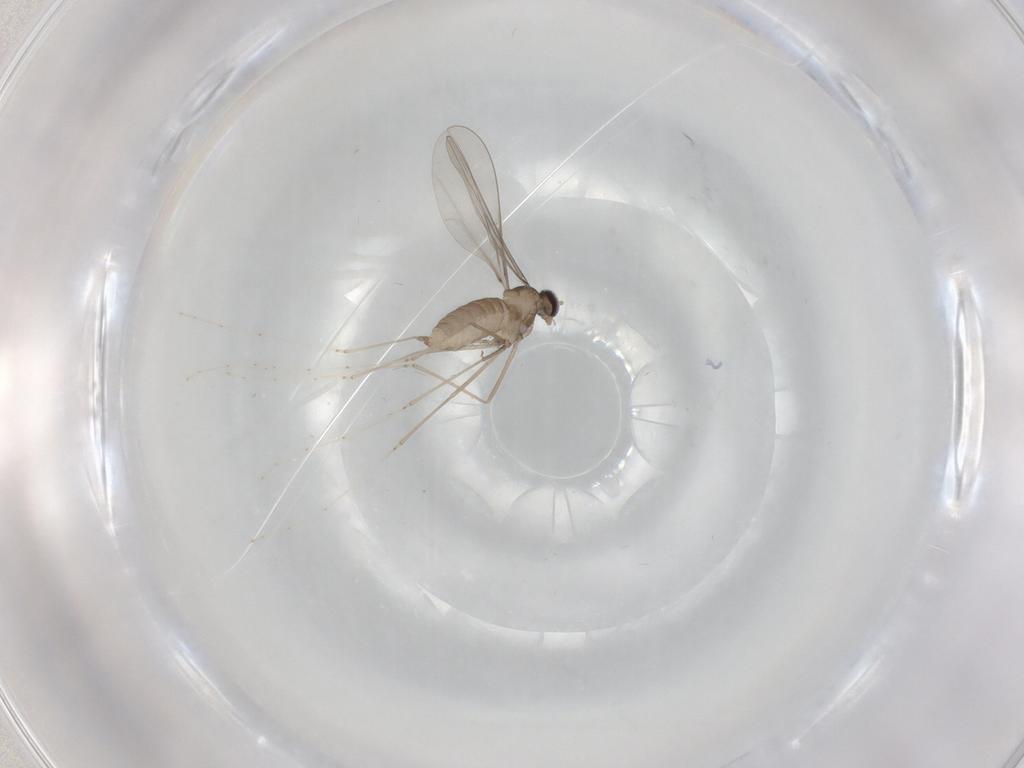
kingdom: Animalia
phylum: Arthropoda
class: Insecta
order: Diptera
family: Cecidomyiidae
